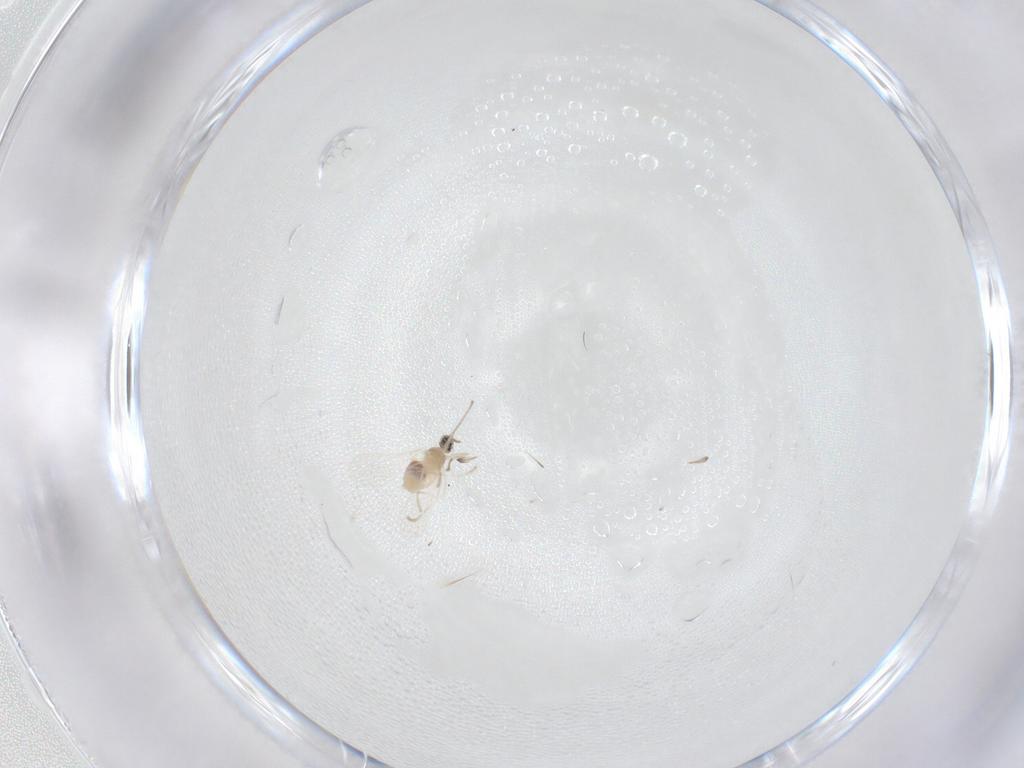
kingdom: Animalia
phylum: Arthropoda
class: Insecta
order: Diptera
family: Cecidomyiidae
